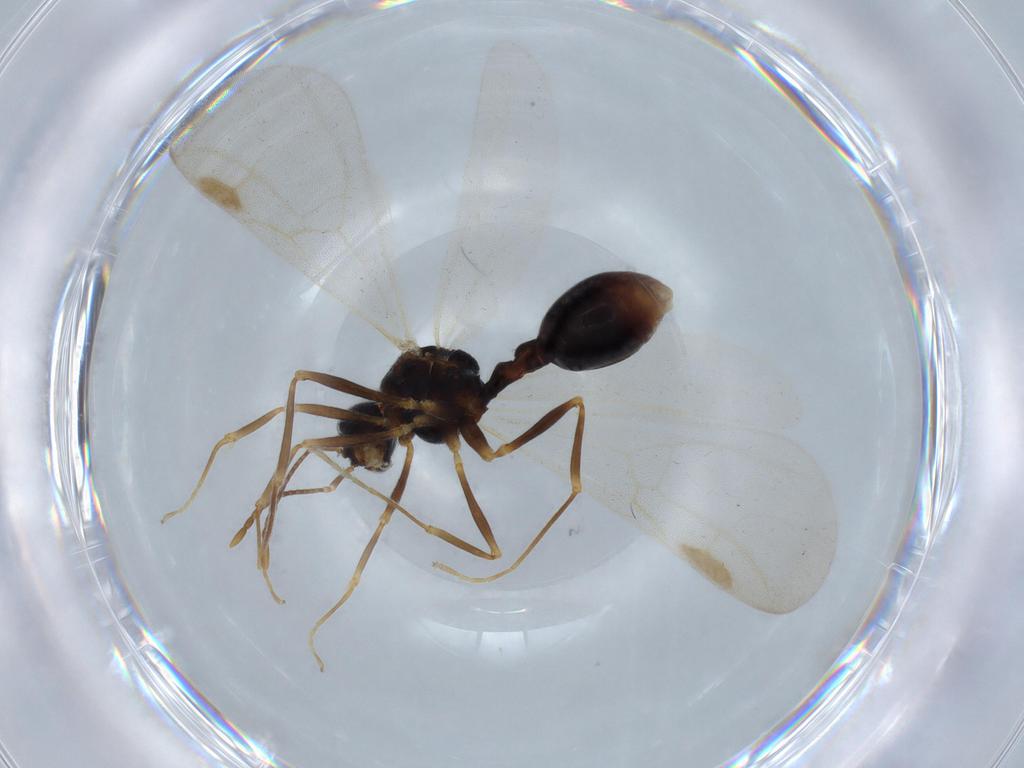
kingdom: Animalia
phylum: Arthropoda
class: Insecta
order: Hymenoptera
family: Formicidae
